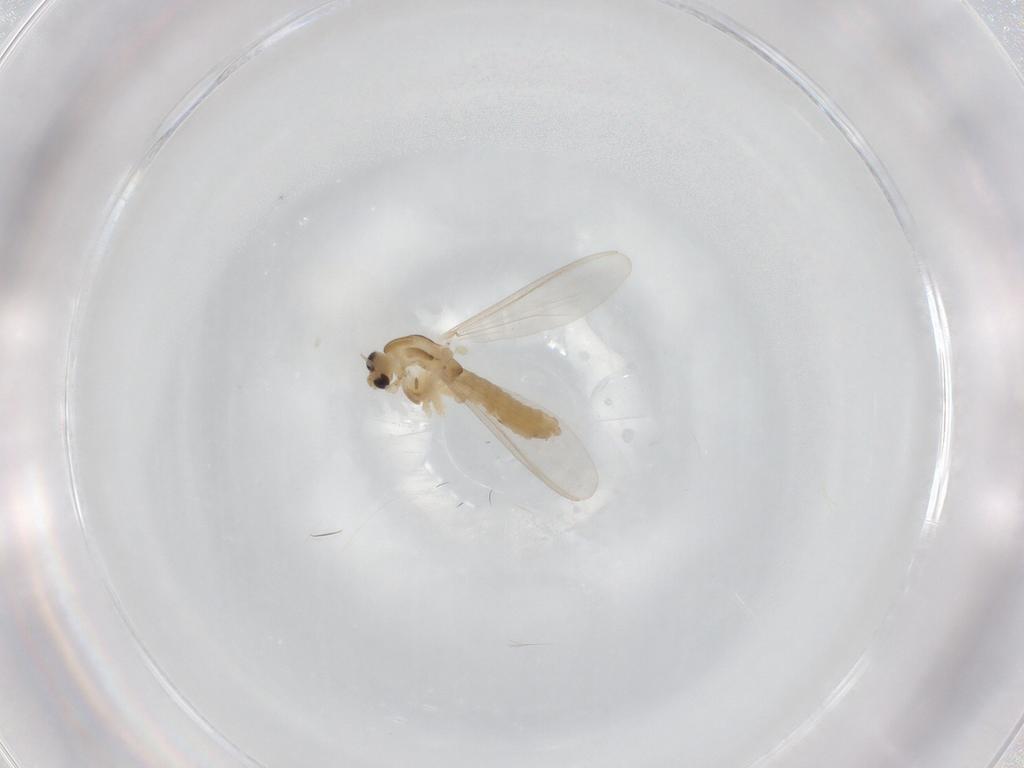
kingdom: Animalia
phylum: Arthropoda
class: Insecta
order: Diptera
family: Chironomidae
